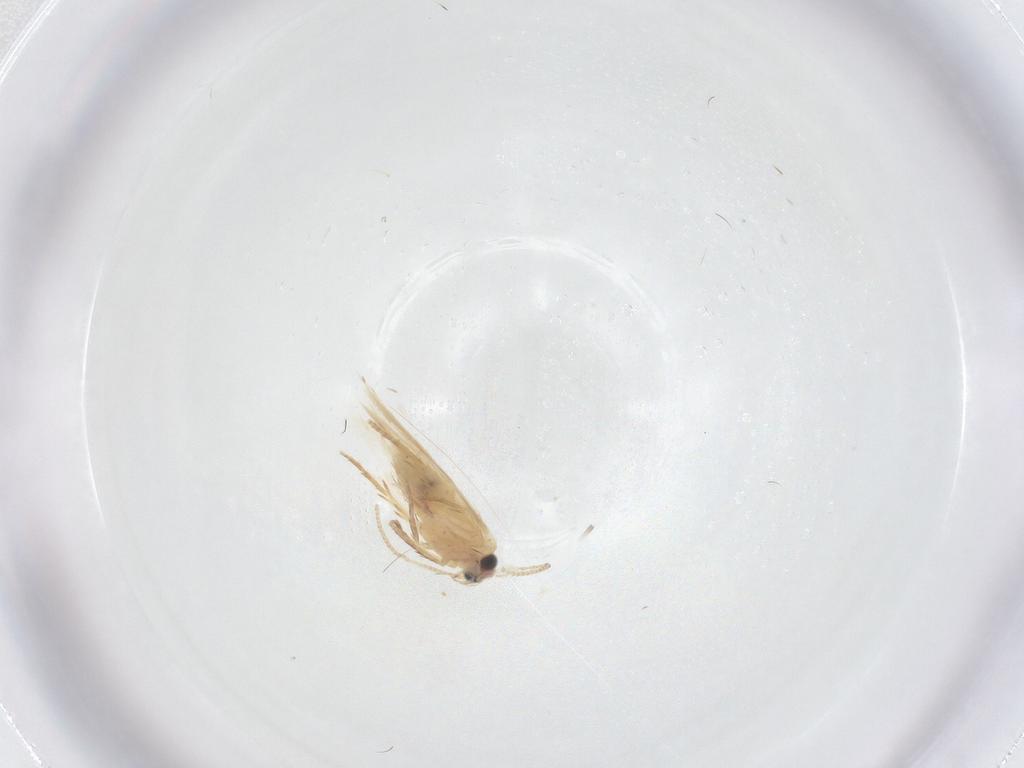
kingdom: Animalia
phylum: Arthropoda
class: Insecta
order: Lepidoptera
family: Nepticulidae
